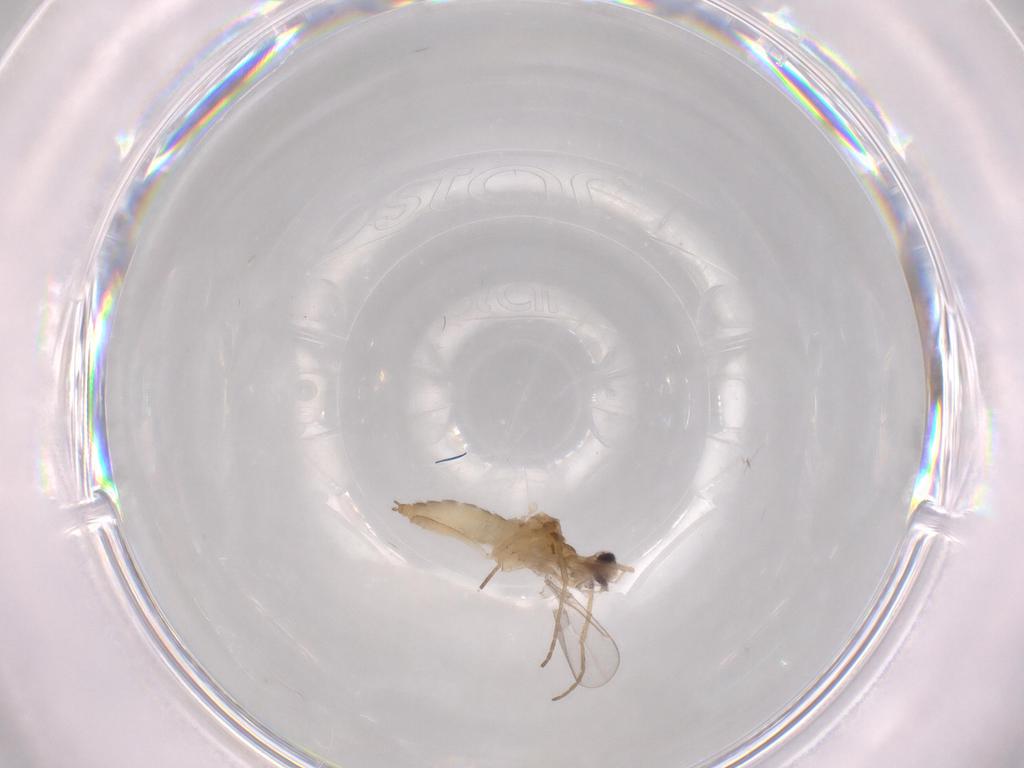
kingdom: Animalia
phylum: Arthropoda
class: Insecta
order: Diptera
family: Cecidomyiidae
